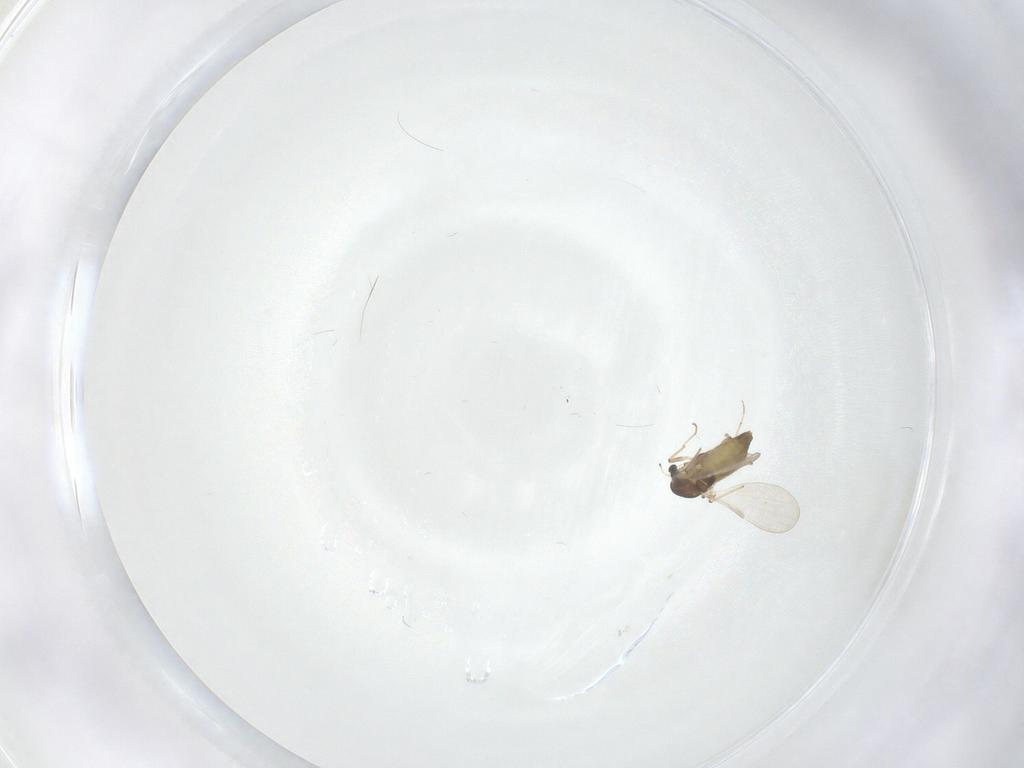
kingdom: Animalia
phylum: Arthropoda
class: Insecta
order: Diptera
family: Chironomidae
